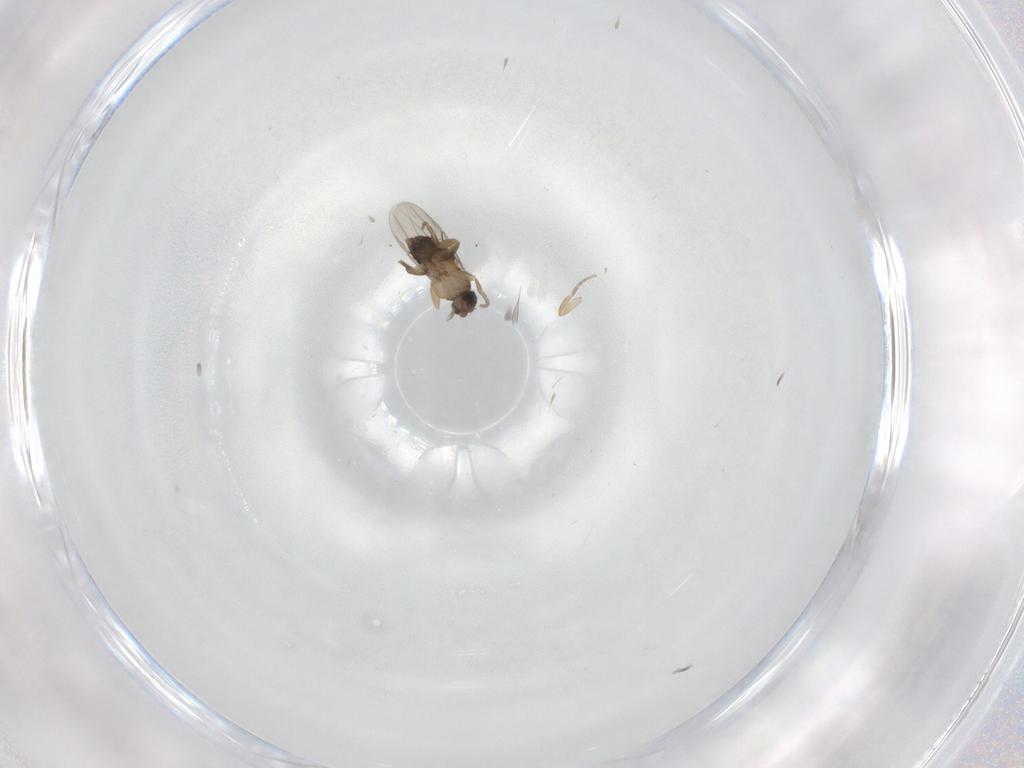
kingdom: Animalia
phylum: Arthropoda
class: Insecta
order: Diptera
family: Phoridae
